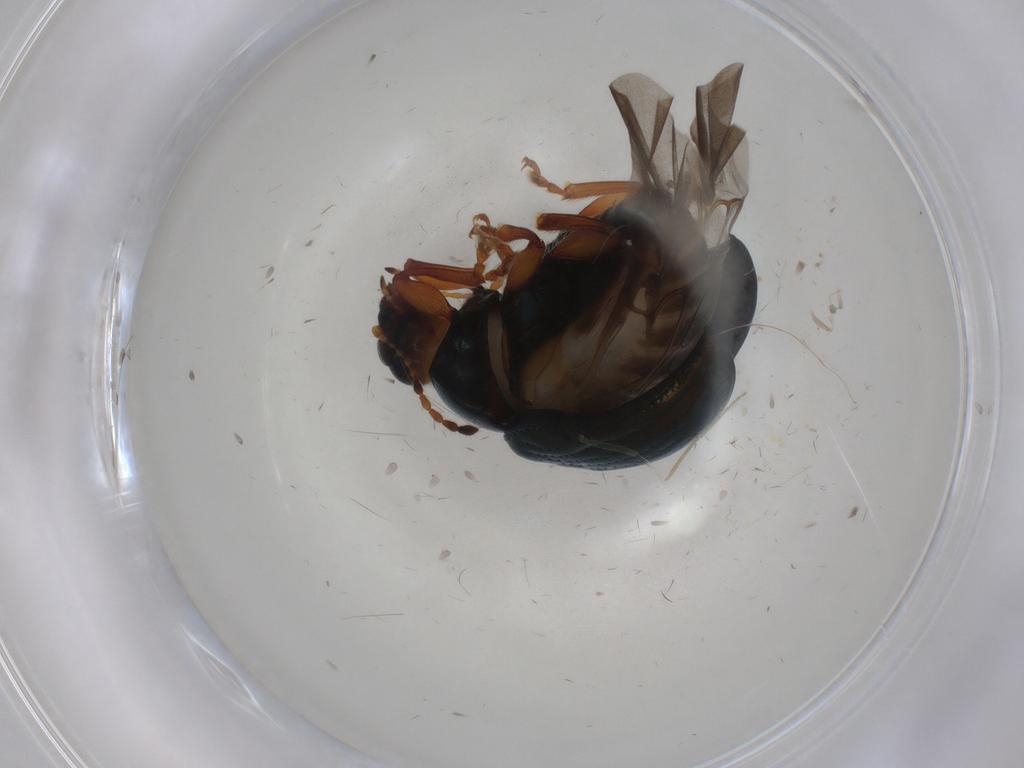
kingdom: Animalia
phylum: Arthropoda
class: Insecta
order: Coleoptera
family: Chrysomelidae
